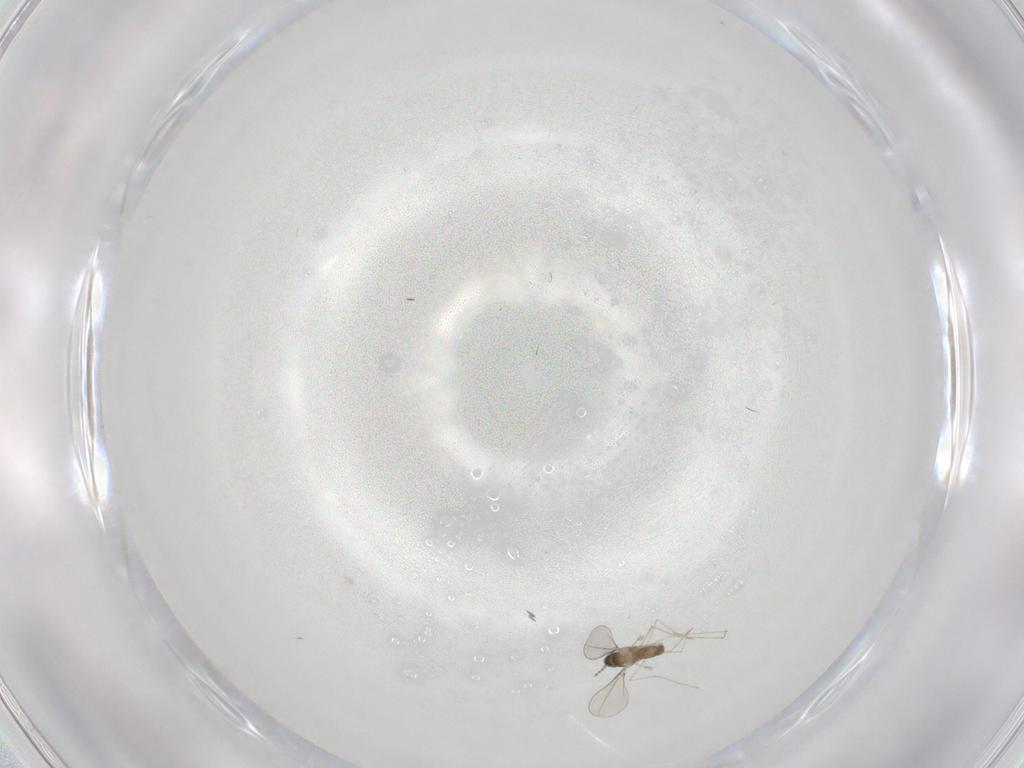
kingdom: Animalia
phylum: Arthropoda
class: Insecta
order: Diptera
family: Cecidomyiidae
